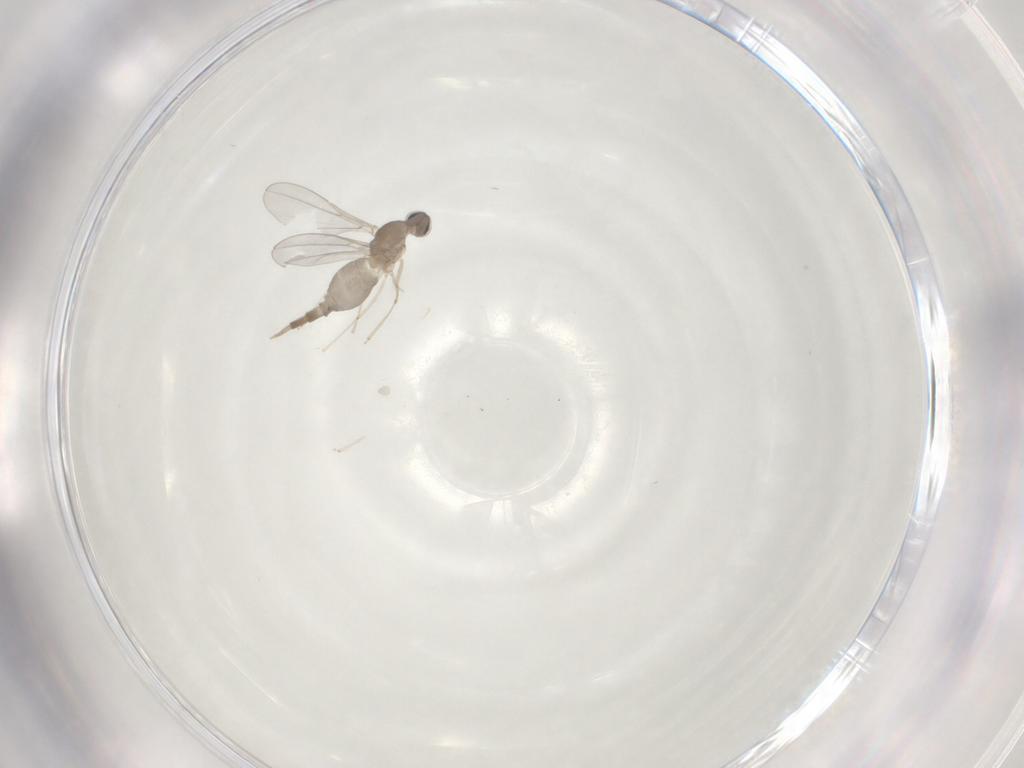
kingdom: Animalia
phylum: Arthropoda
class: Insecta
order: Diptera
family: Cecidomyiidae
